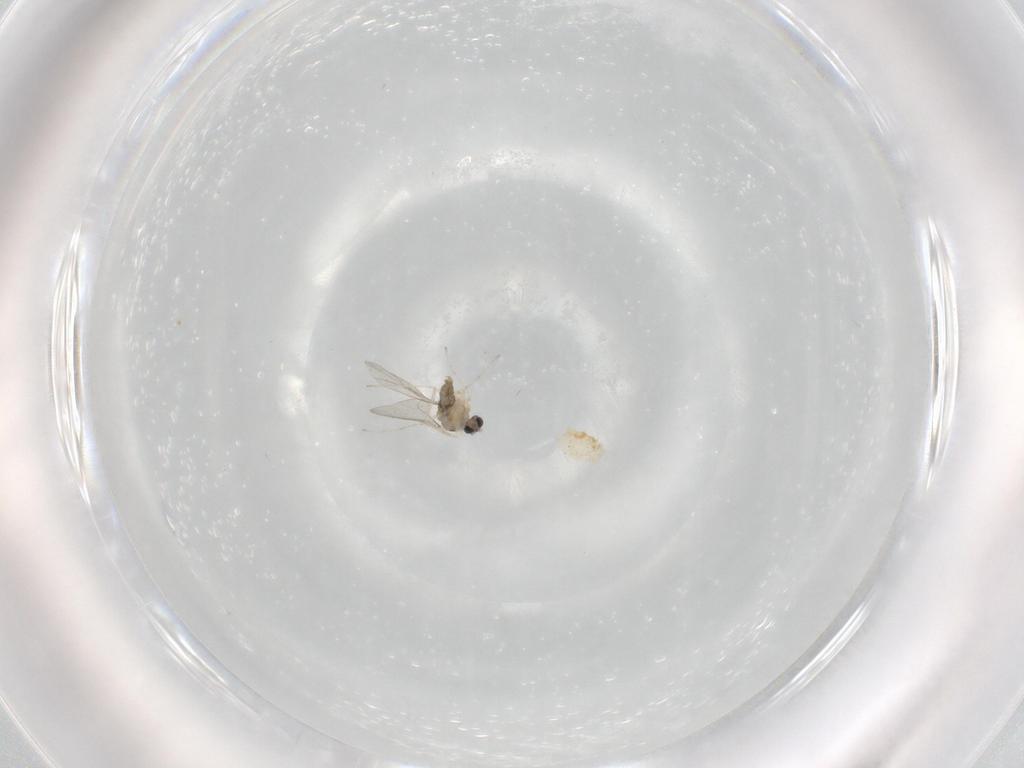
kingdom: Animalia
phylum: Arthropoda
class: Insecta
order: Diptera
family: Cecidomyiidae
